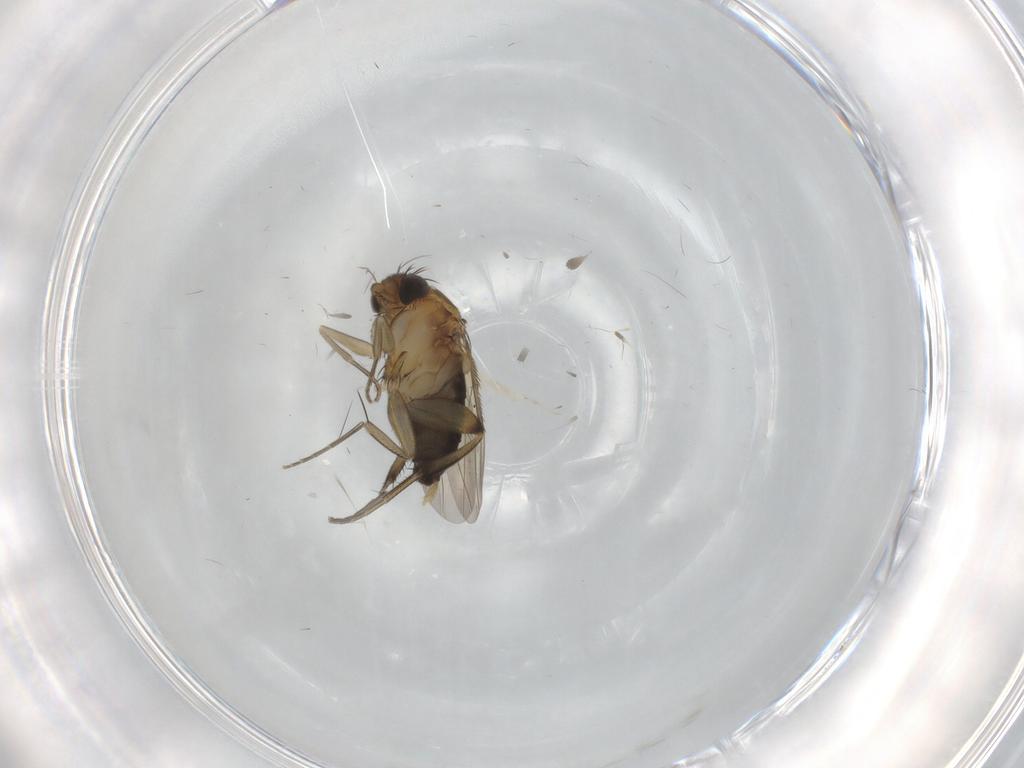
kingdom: Animalia
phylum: Arthropoda
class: Insecta
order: Diptera
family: Sciaridae
